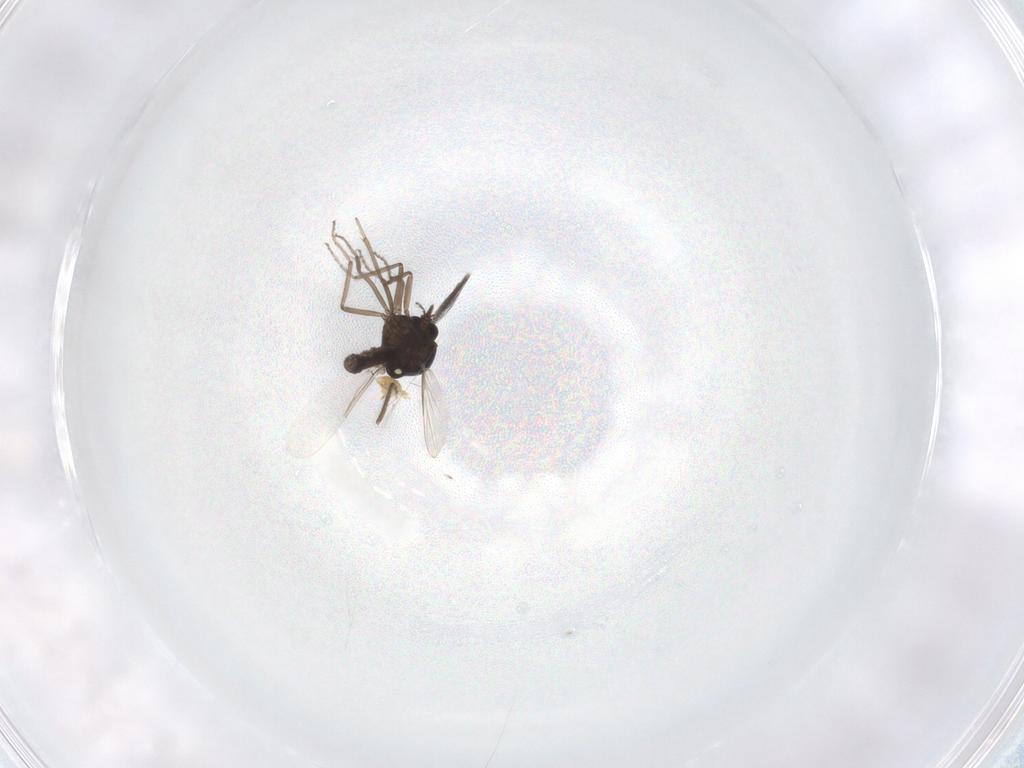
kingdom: Animalia
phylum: Arthropoda
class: Insecta
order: Diptera
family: Ceratopogonidae
